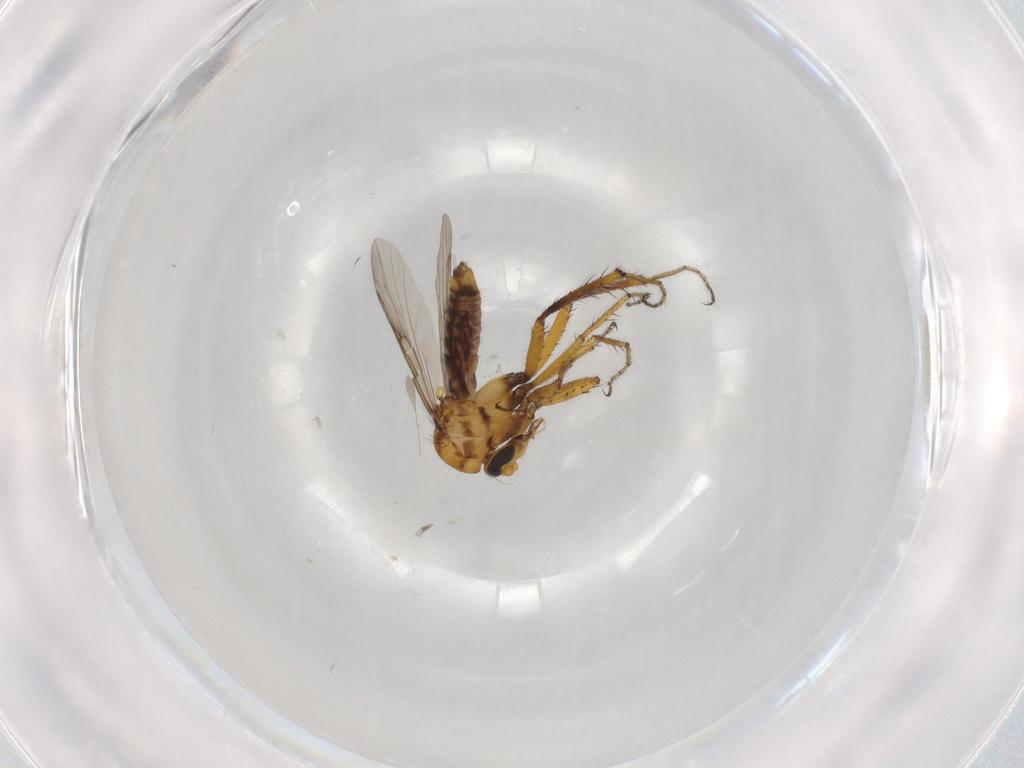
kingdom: Animalia
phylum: Arthropoda
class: Insecta
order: Diptera
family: Ceratopogonidae
